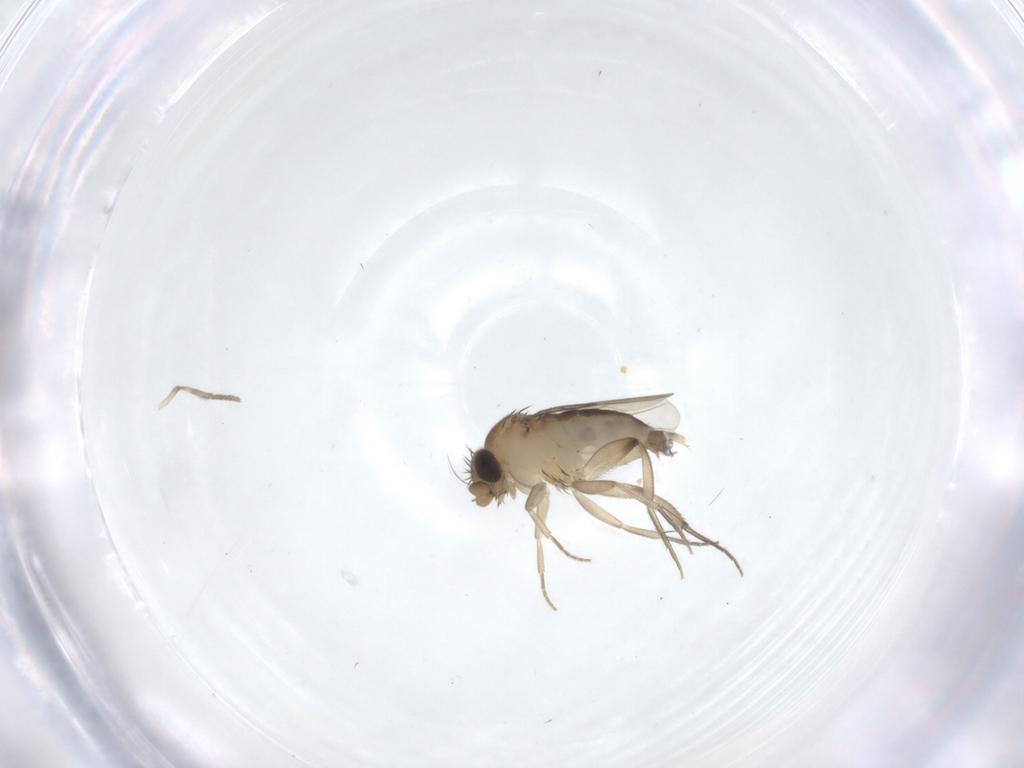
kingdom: Animalia
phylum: Arthropoda
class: Insecta
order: Diptera
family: Phoridae
